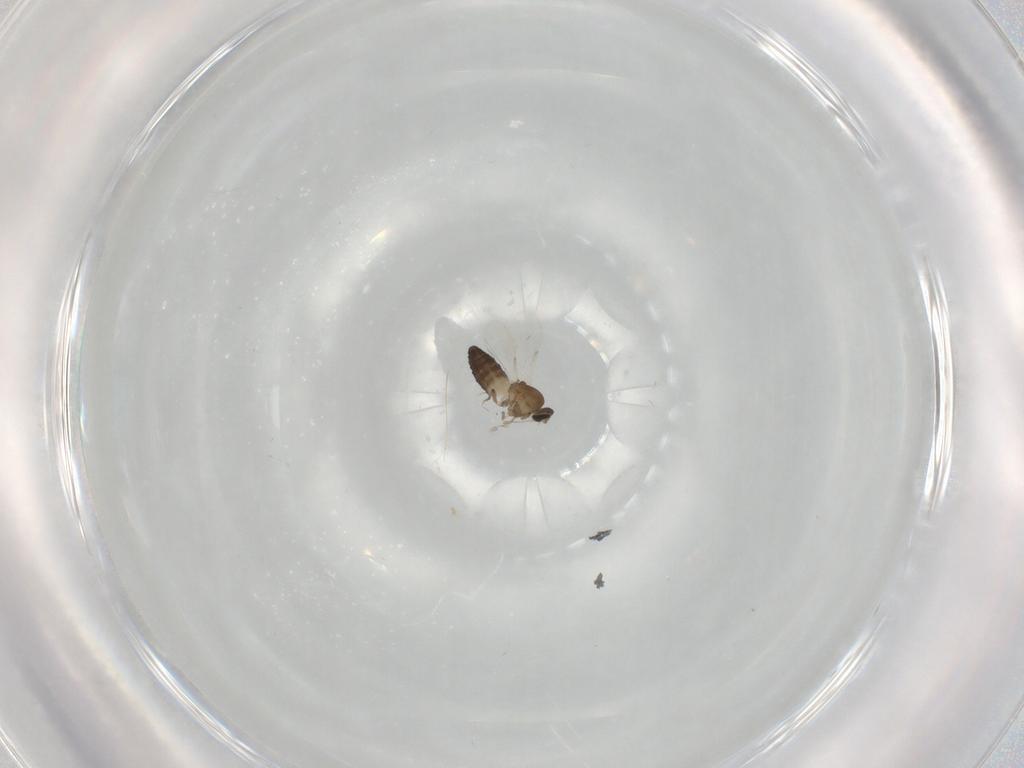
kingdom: Animalia
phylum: Arthropoda
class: Insecta
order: Diptera
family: Ceratopogonidae
